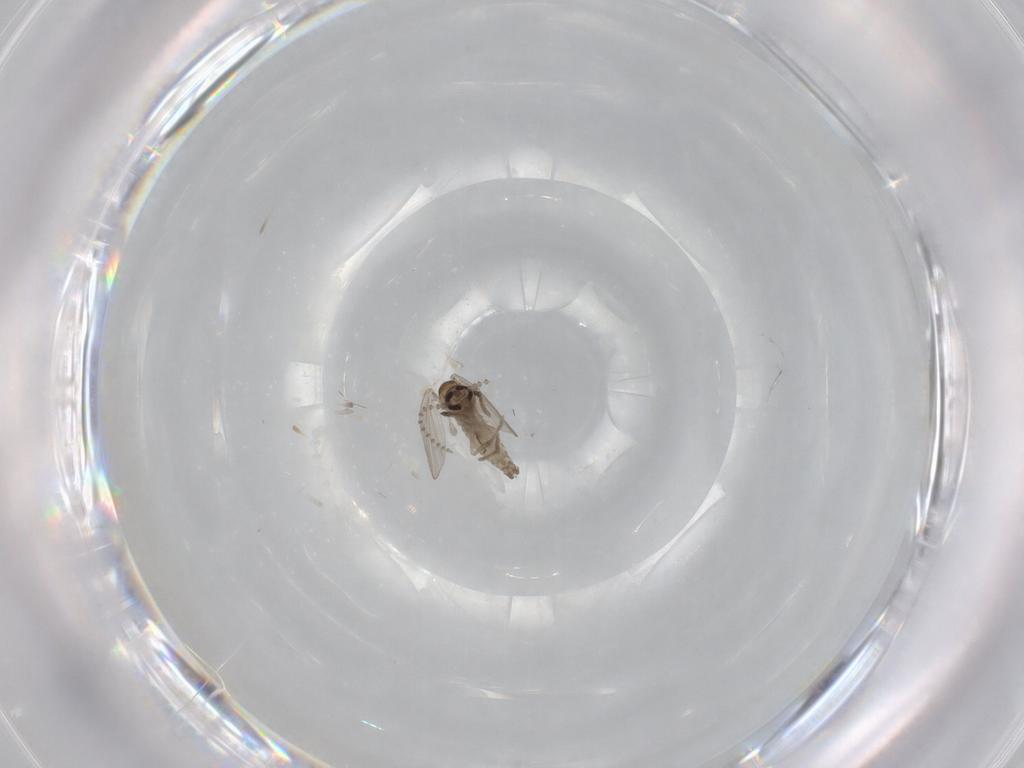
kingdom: Animalia
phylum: Arthropoda
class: Insecta
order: Diptera
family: Psychodidae
